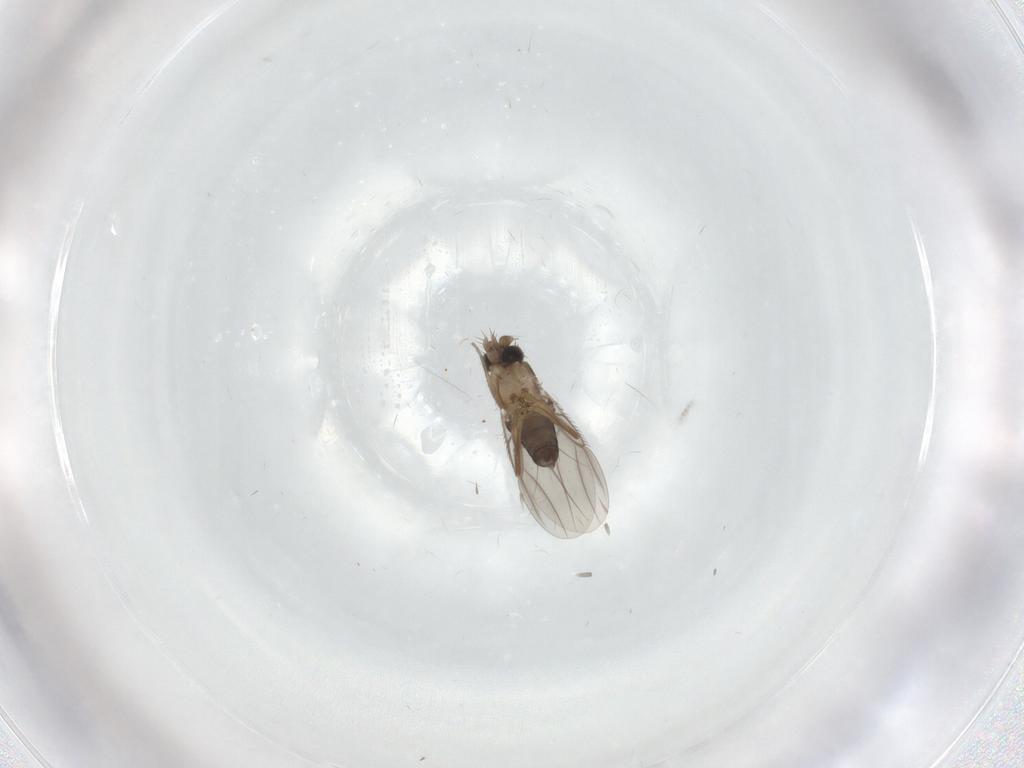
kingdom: Animalia
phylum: Arthropoda
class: Insecta
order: Diptera
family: Phoridae
